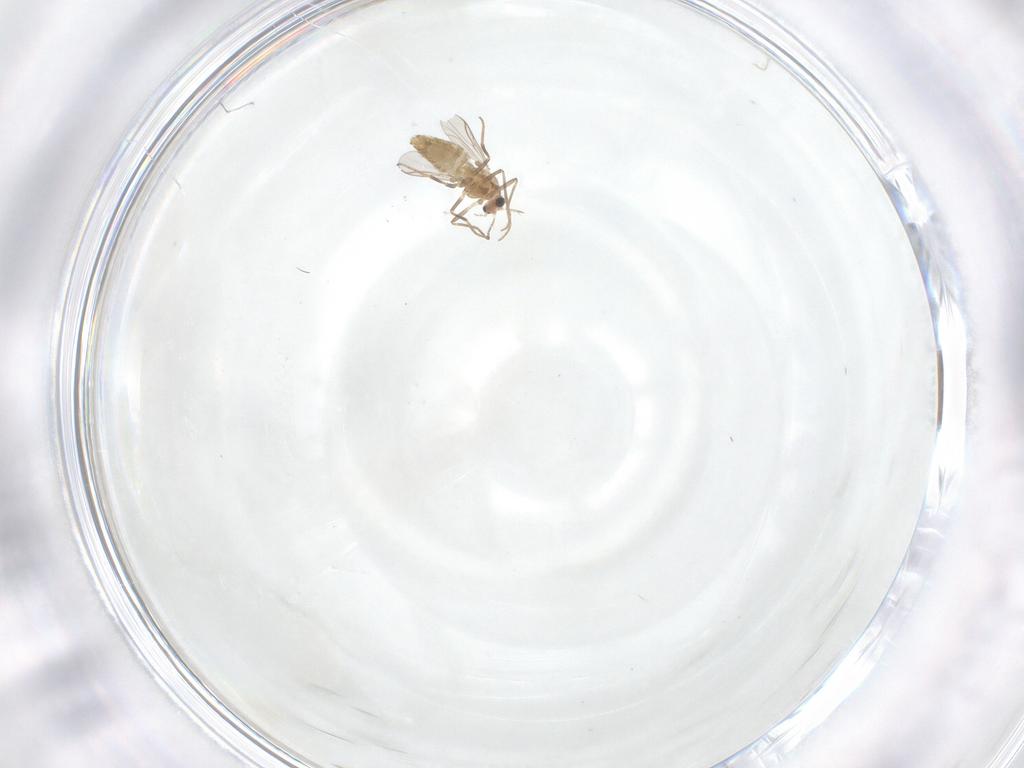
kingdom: Animalia
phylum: Arthropoda
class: Insecta
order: Diptera
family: Chironomidae
